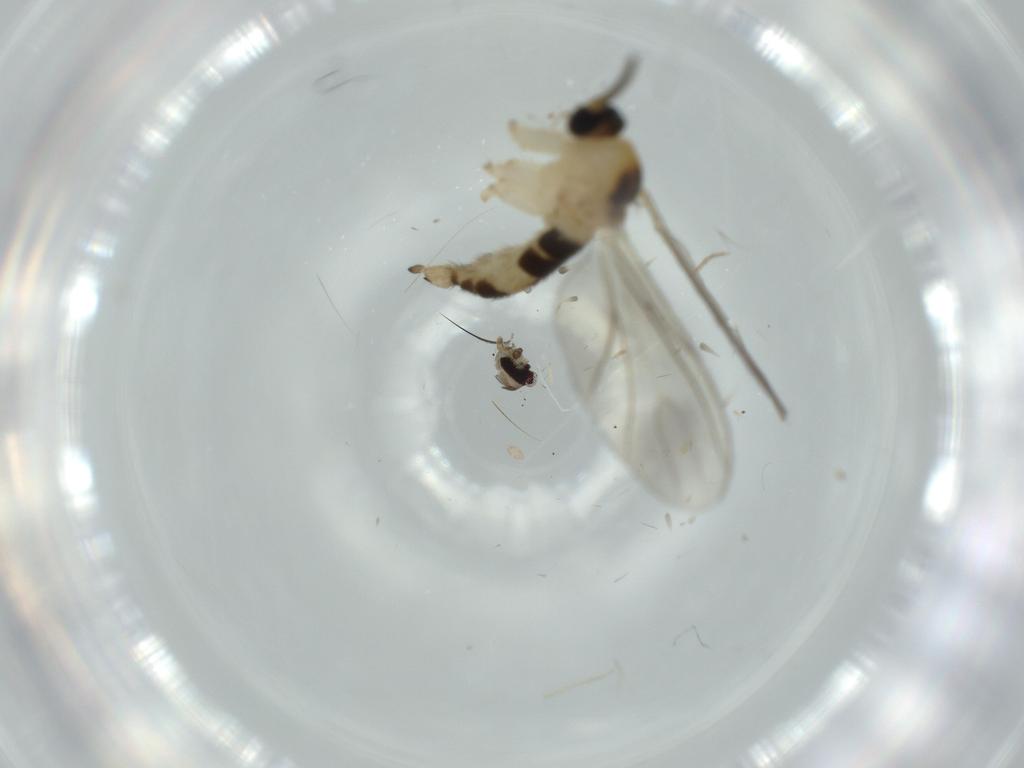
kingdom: Animalia
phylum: Arthropoda
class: Insecta
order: Diptera
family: Sciaridae
